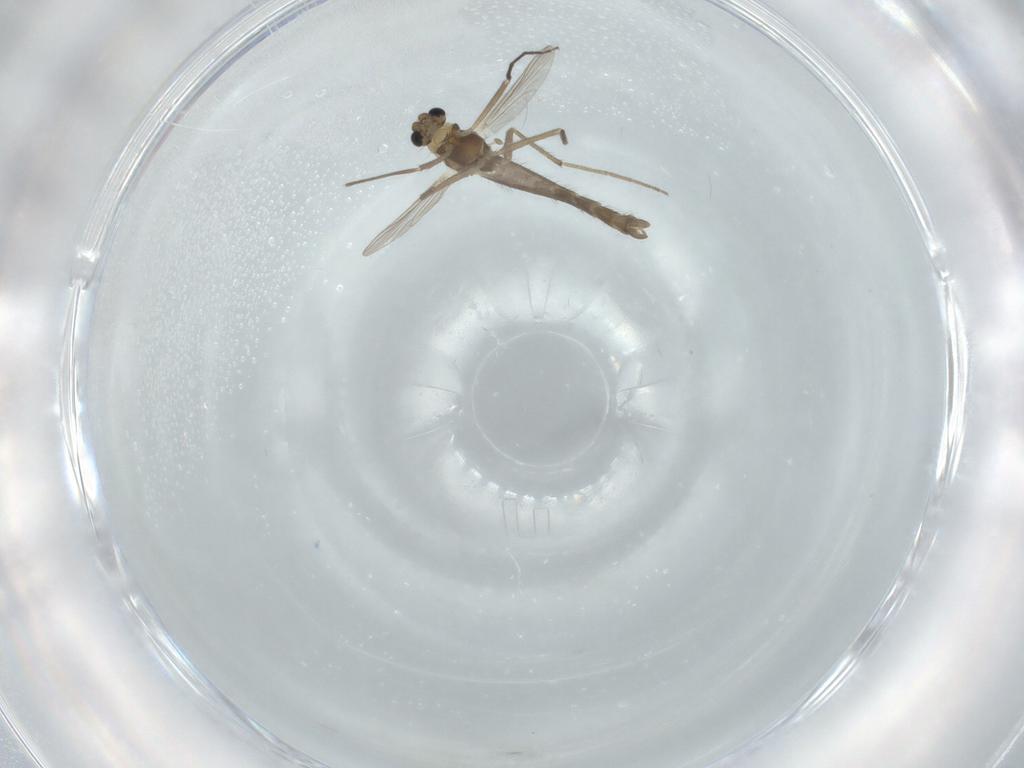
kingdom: Animalia
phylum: Arthropoda
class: Insecta
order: Diptera
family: Chironomidae
